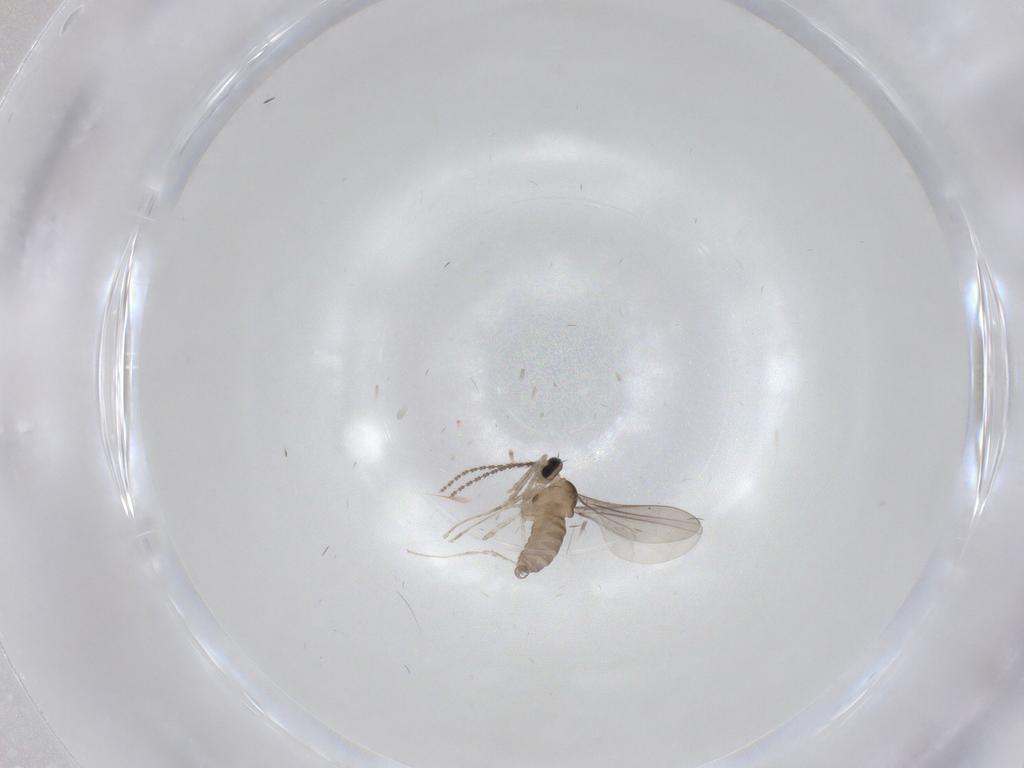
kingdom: Animalia
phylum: Arthropoda
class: Insecta
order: Diptera
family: Cecidomyiidae
